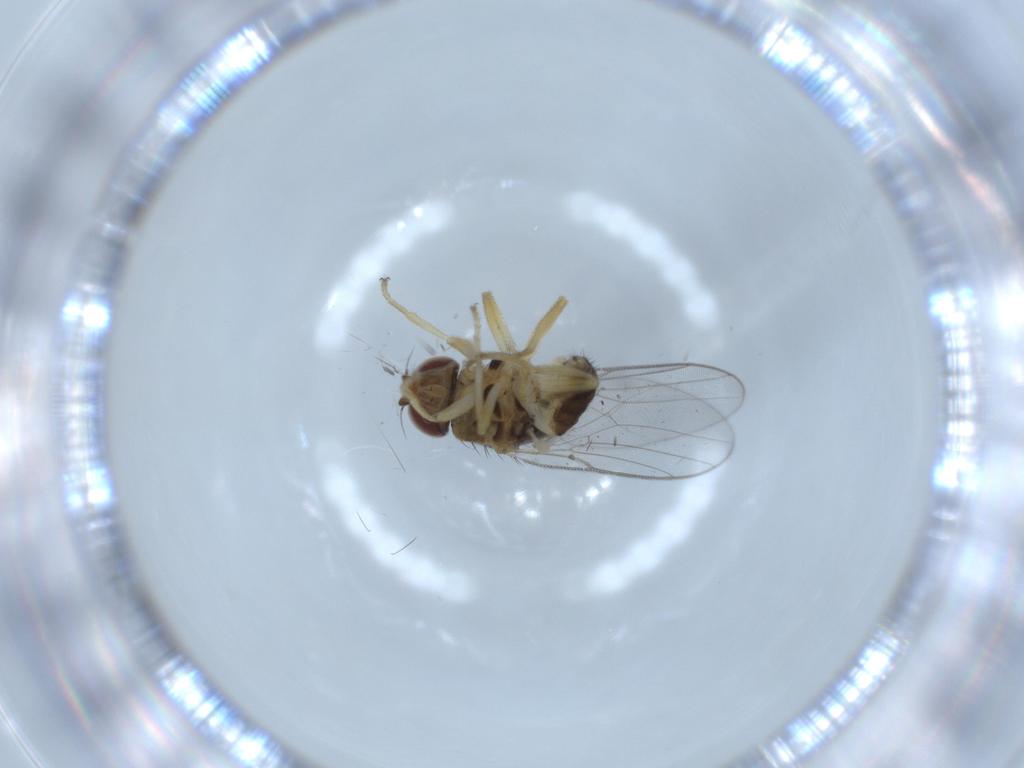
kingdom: Animalia
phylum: Arthropoda
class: Insecta
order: Diptera
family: Chloropidae
